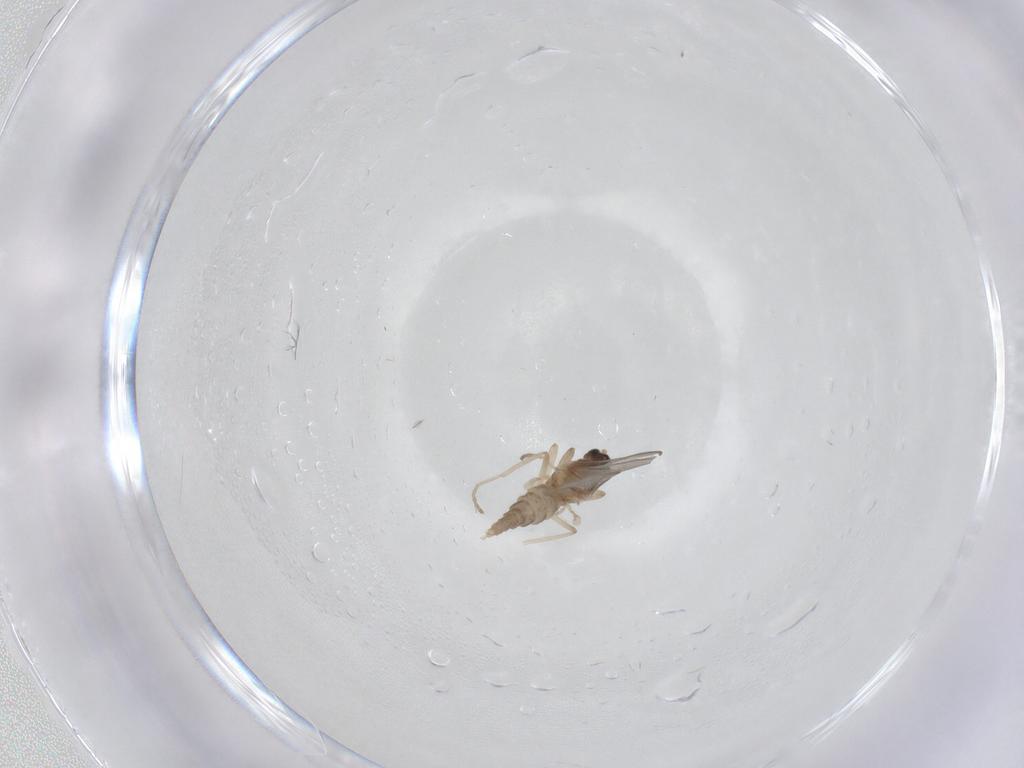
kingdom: Animalia
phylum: Arthropoda
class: Insecta
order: Diptera
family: Cecidomyiidae
